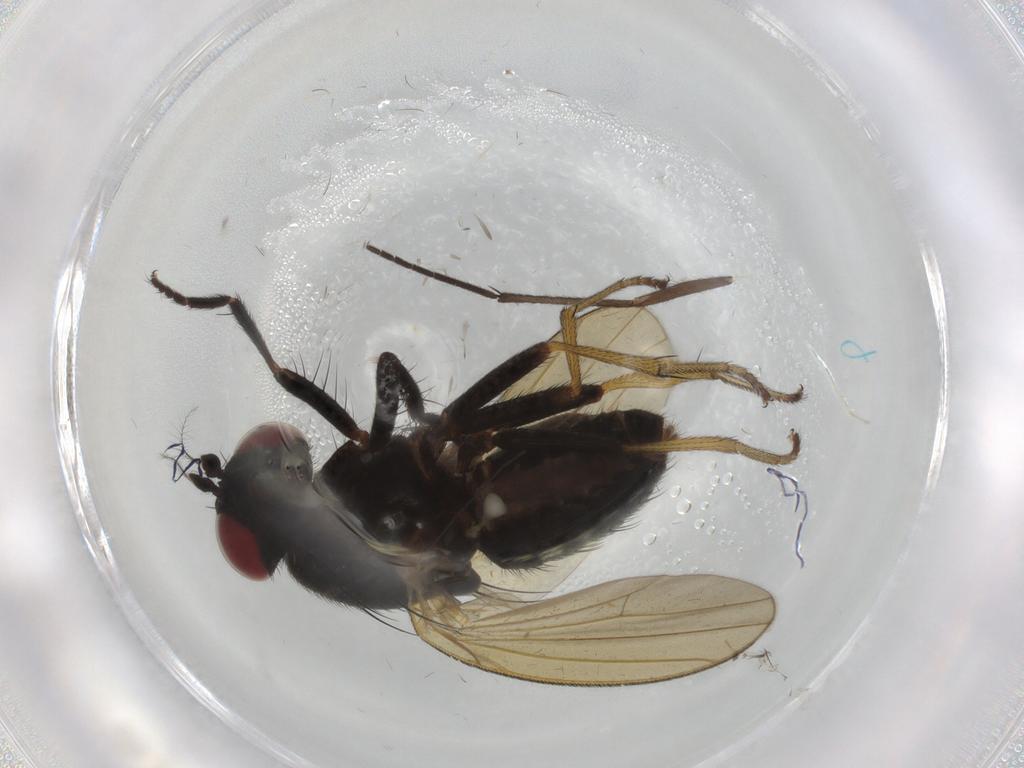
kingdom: Animalia
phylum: Arthropoda
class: Insecta
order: Diptera
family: Sciaridae
